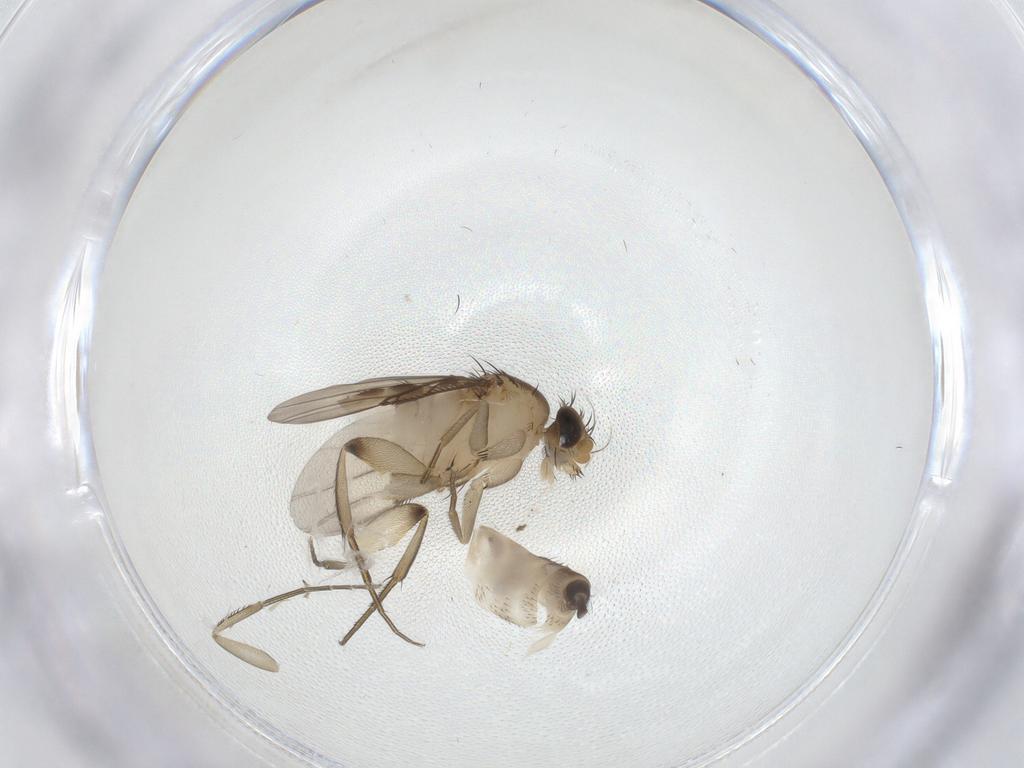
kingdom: Animalia
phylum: Arthropoda
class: Insecta
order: Diptera
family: Phoridae
